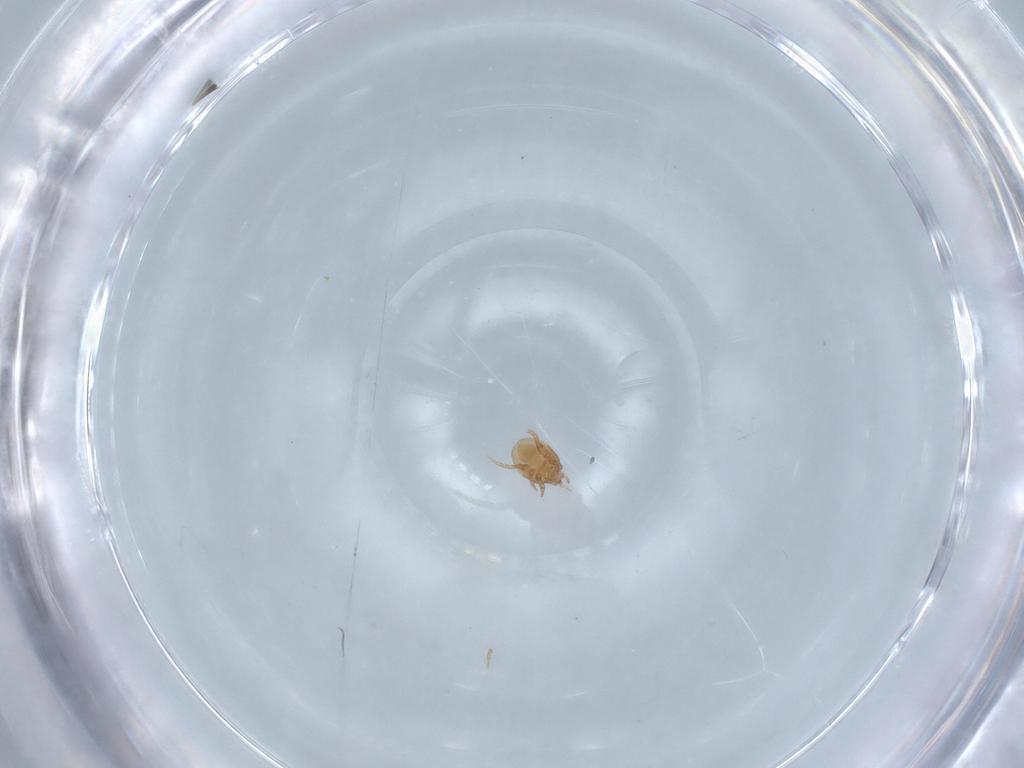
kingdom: Animalia
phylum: Arthropoda
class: Arachnida
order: Mesostigmata
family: Macrochelidae
